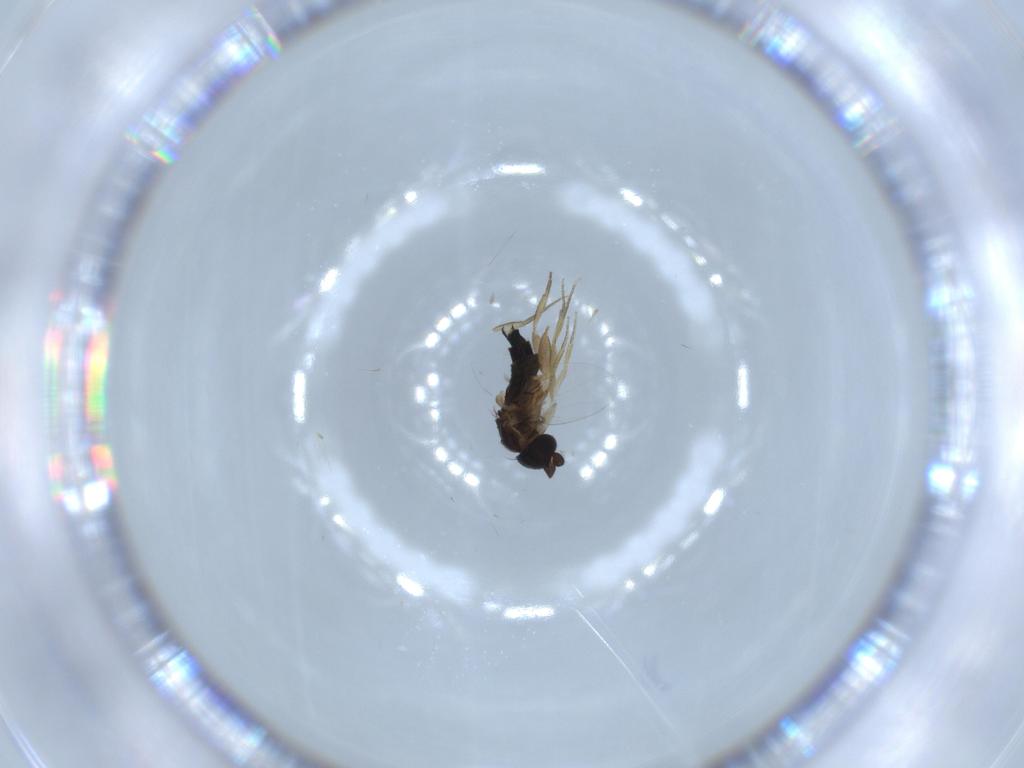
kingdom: Animalia
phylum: Arthropoda
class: Insecta
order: Diptera
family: Phoridae
